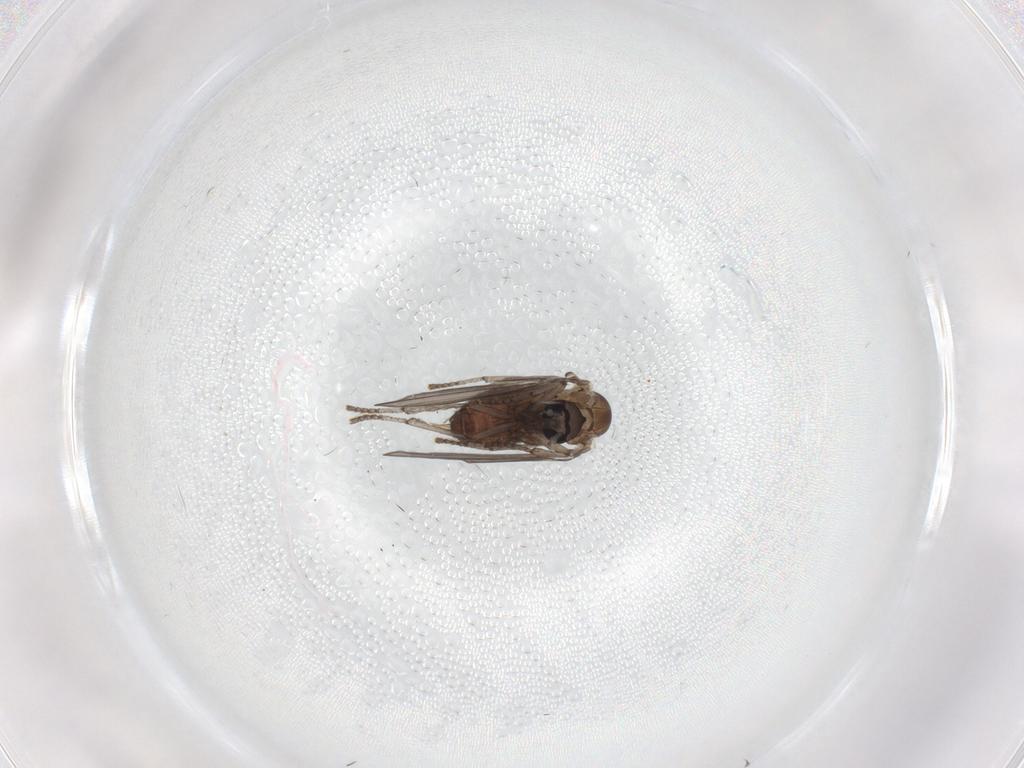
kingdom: Animalia
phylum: Arthropoda
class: Insecta
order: Diptera
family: Psychodidae
